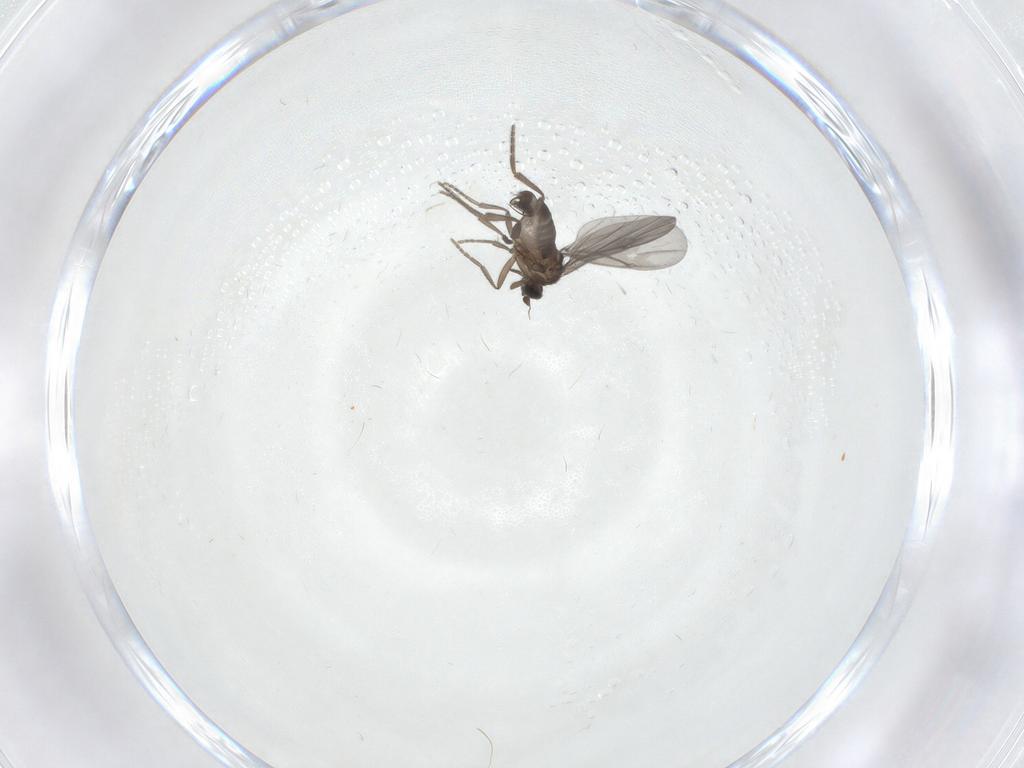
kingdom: Animalia
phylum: Arthropoda
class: Insecta
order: Diptera
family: Phoridae
